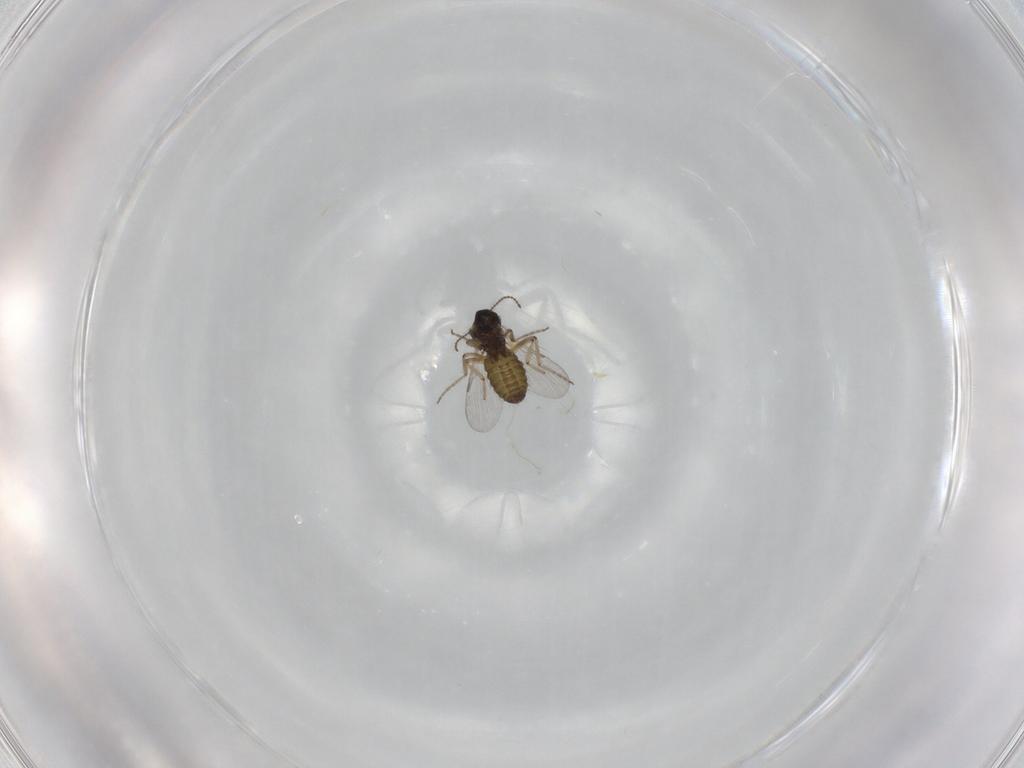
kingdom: Animalia
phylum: Arthropoda
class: Insecta
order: Diptera
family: Ceratopogonidae
